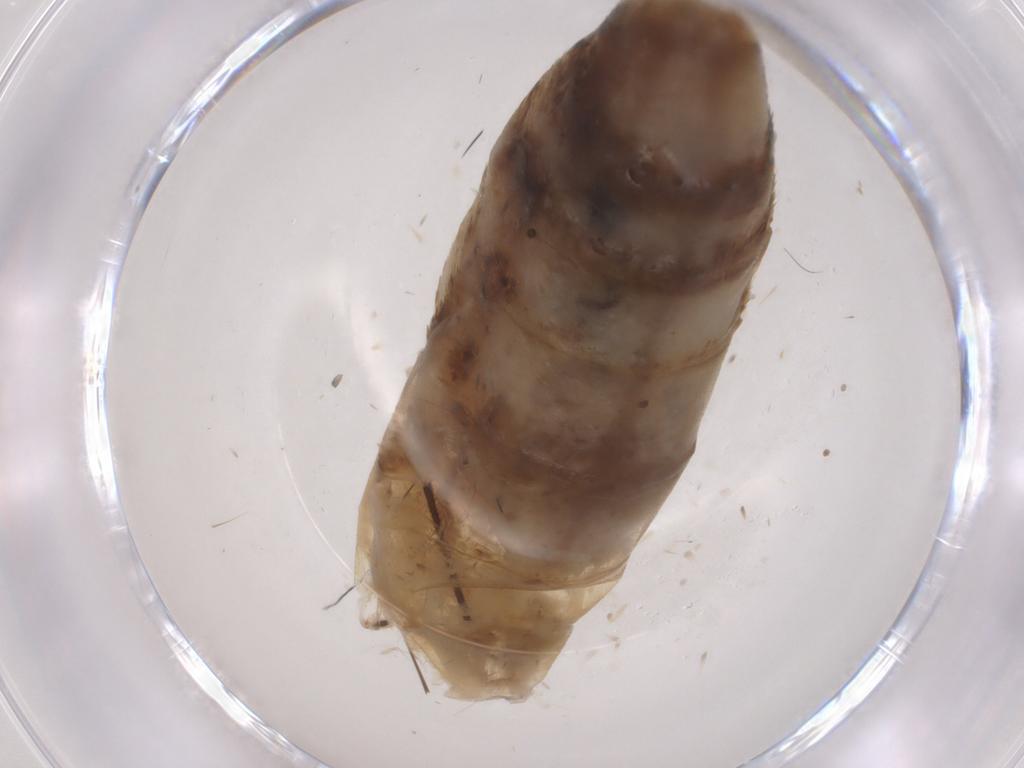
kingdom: Animalia
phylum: Arthropoda
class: Insecta
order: Lepidoptera
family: Erebidae
